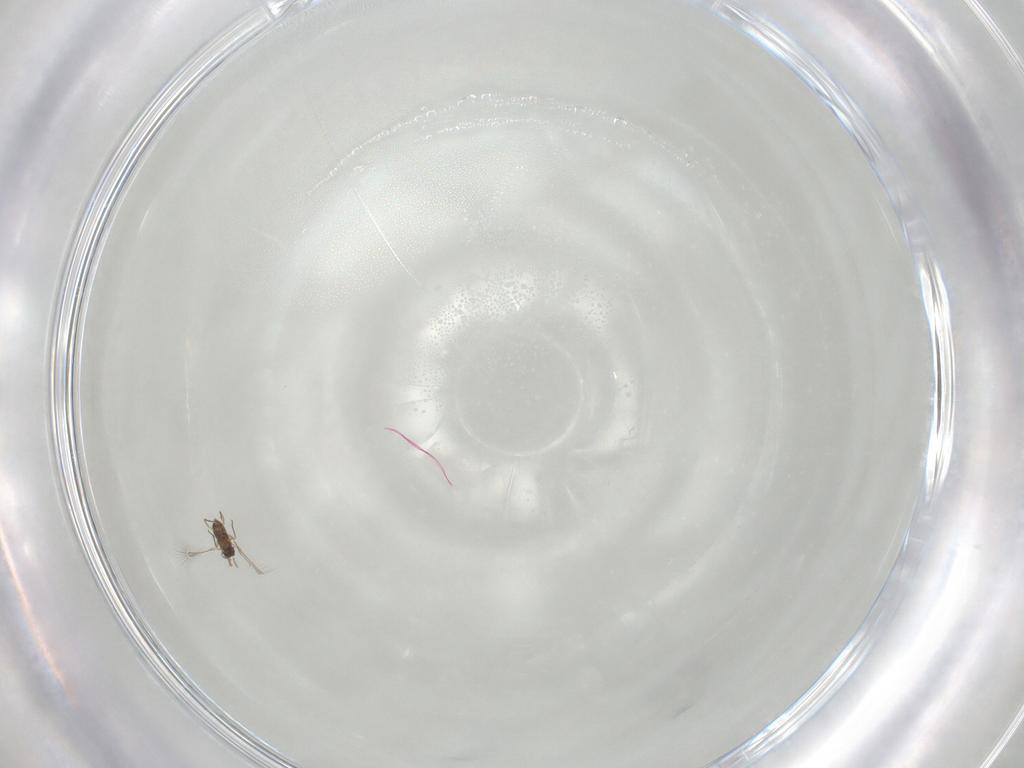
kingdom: Animalia
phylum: Arthropoda
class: Insecta
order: Hymenoptera
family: Mymaridae
